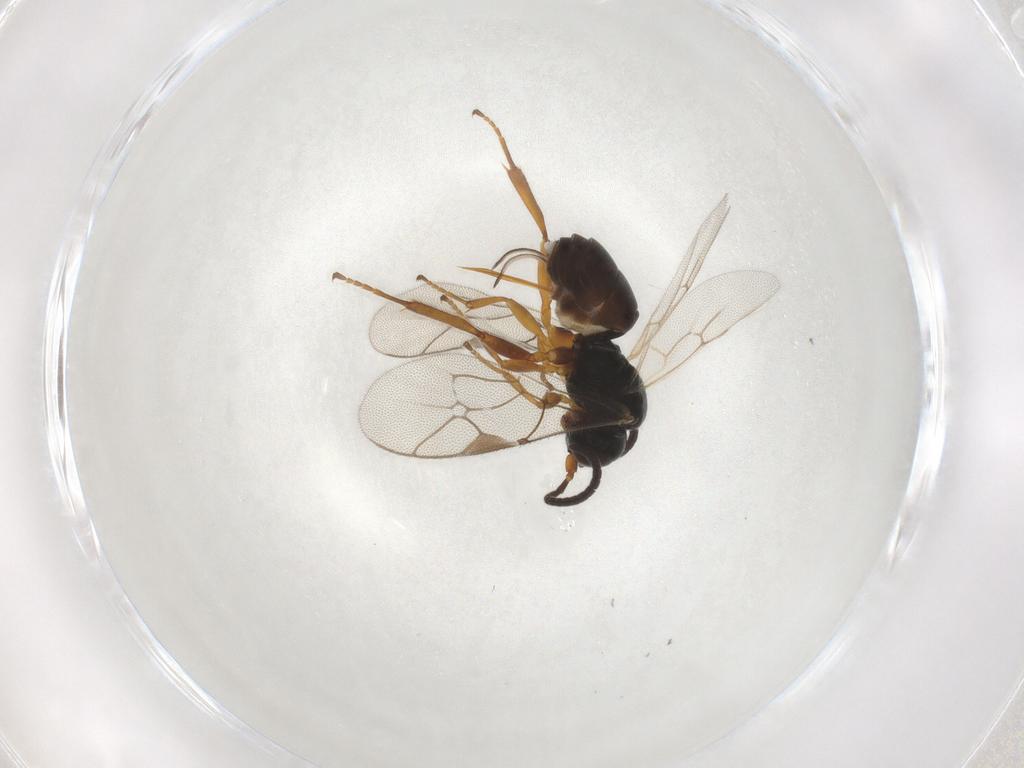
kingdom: Animalia
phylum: Arthropoda
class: Insecta
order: Hymenoptera
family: Ichneumonidae
